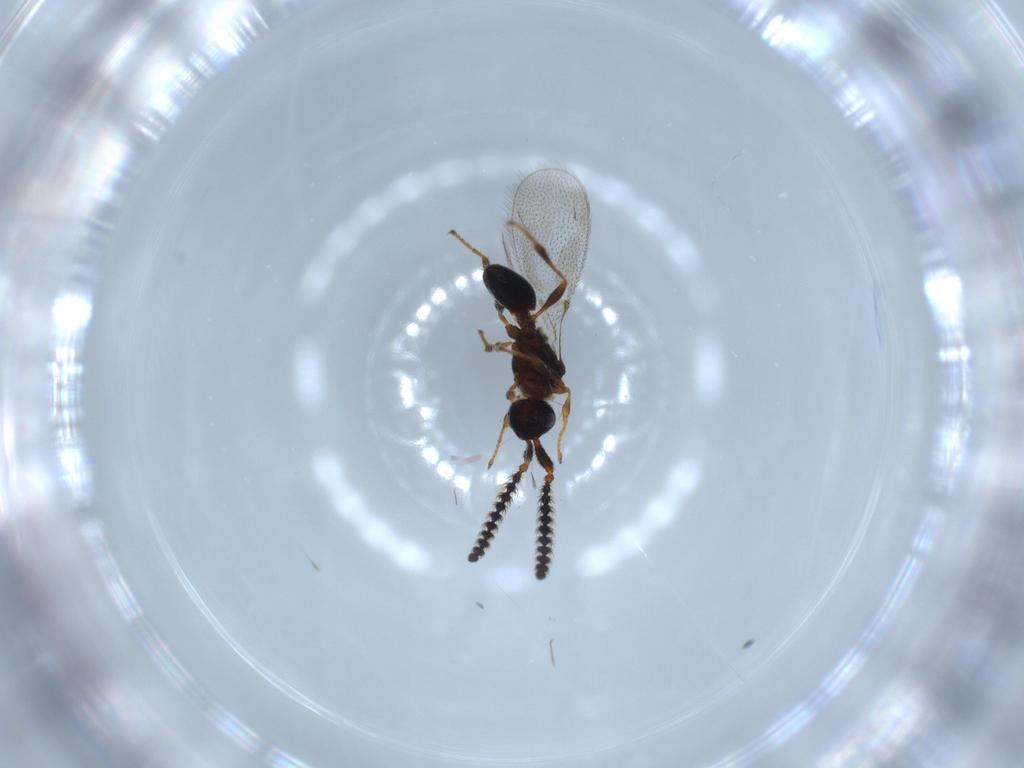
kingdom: Animalia
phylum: Arthropoda
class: Insecta
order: Hymenoptera
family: Diapriidae
